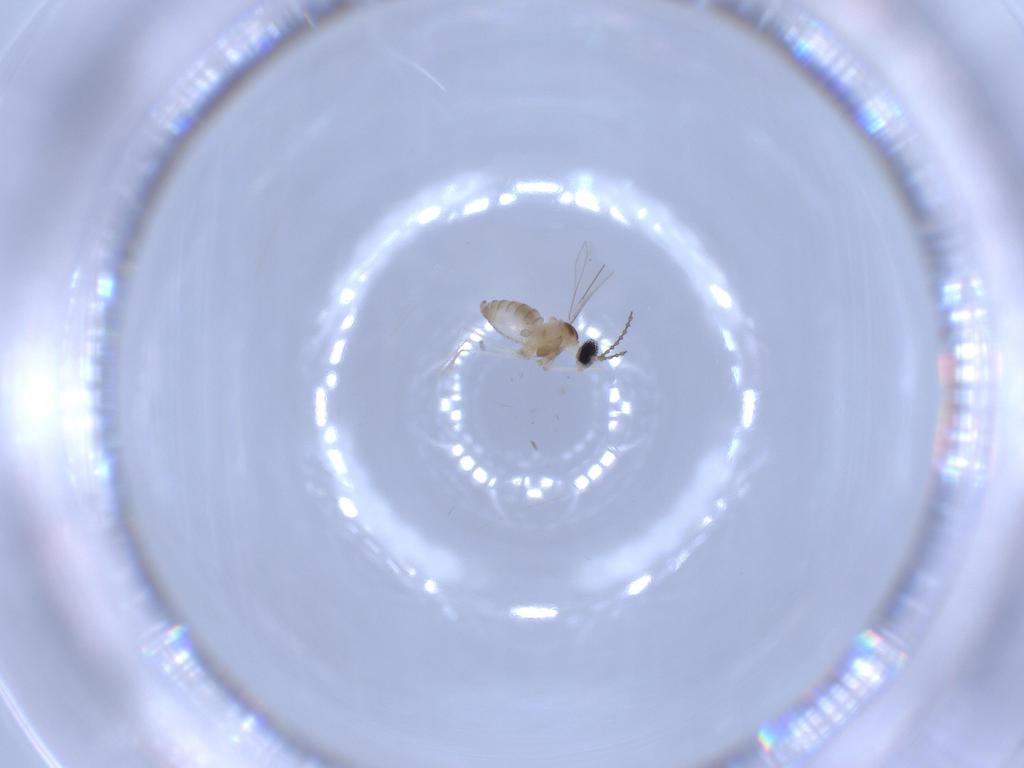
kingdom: Animalia
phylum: Arthropoda
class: Insecta
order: Diptera
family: Cecidomyiidae
